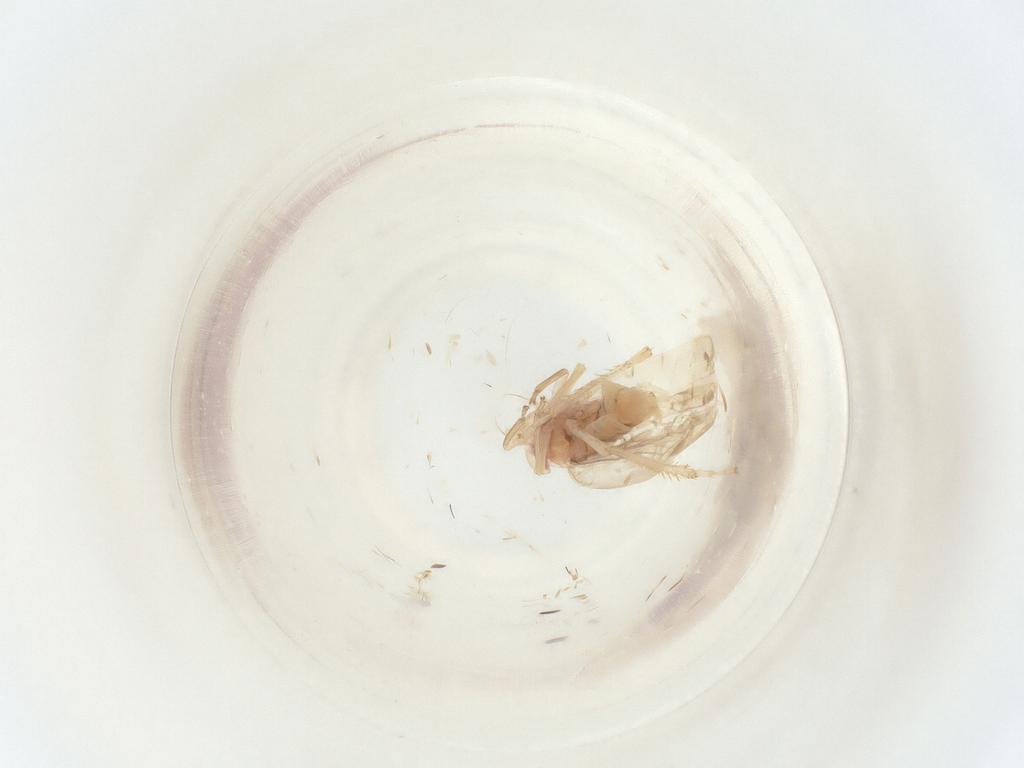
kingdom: Animalia
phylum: Arthropoda
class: Insecta
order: Hemiptera
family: Cicadellidae
